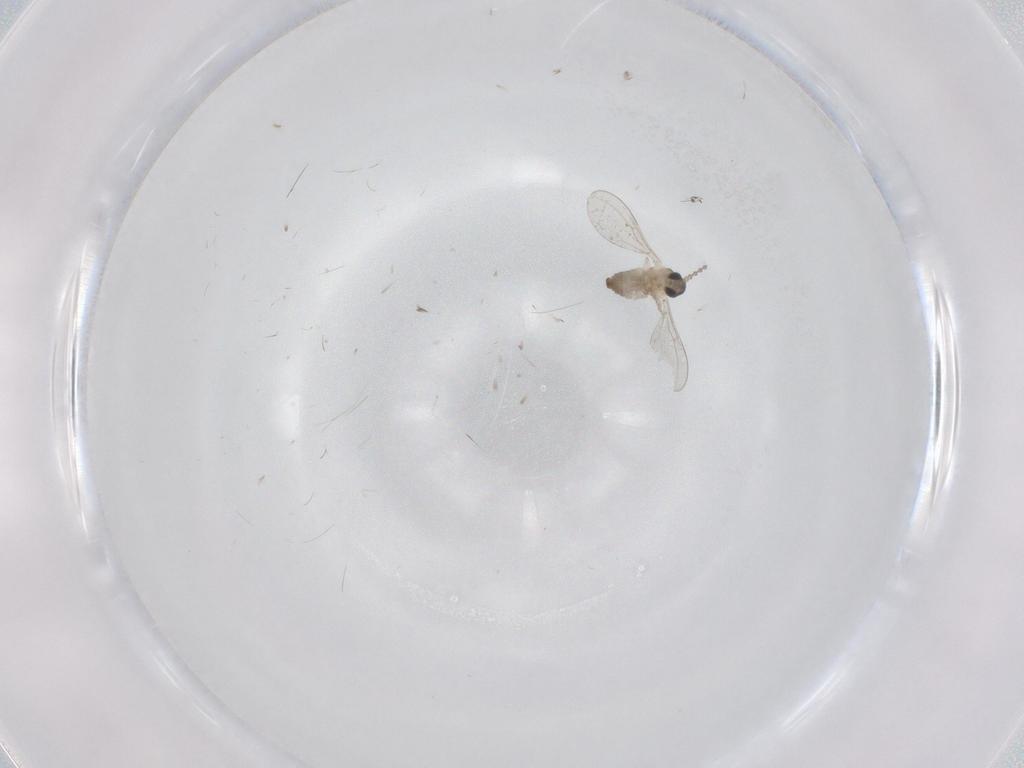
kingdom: Animalia
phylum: Arthropoda
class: Insecta
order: Diptera
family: Cecidomyiidae
